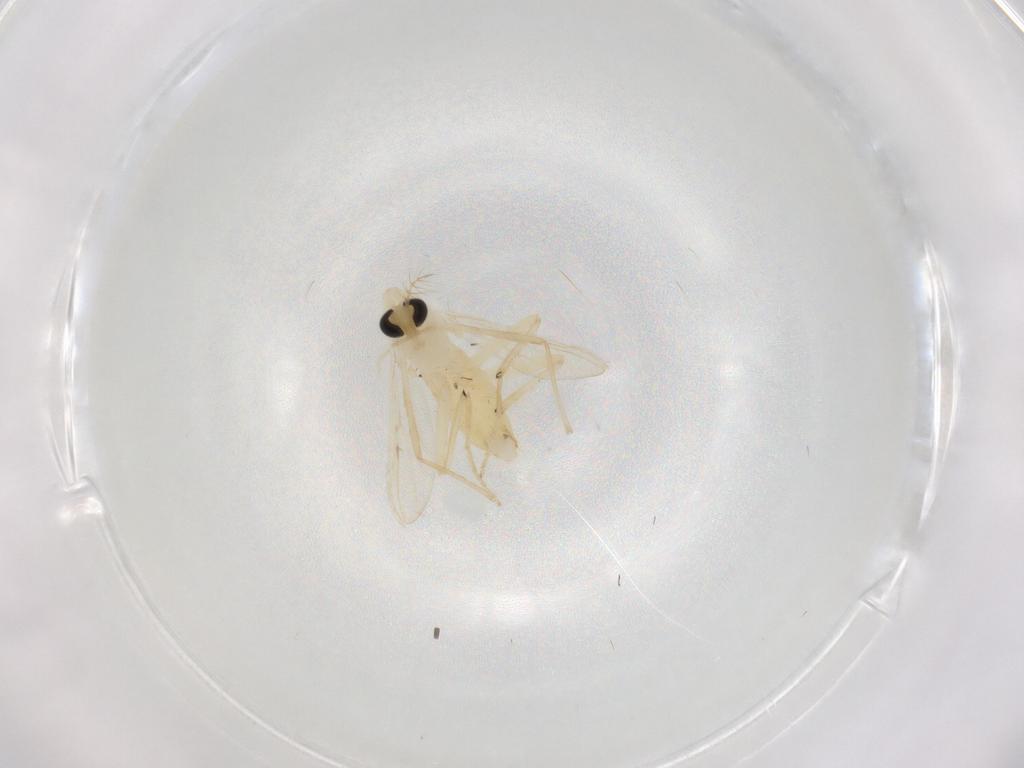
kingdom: Animalia
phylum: Arthropoda
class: Insecta
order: Diptera
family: Chironomidae
